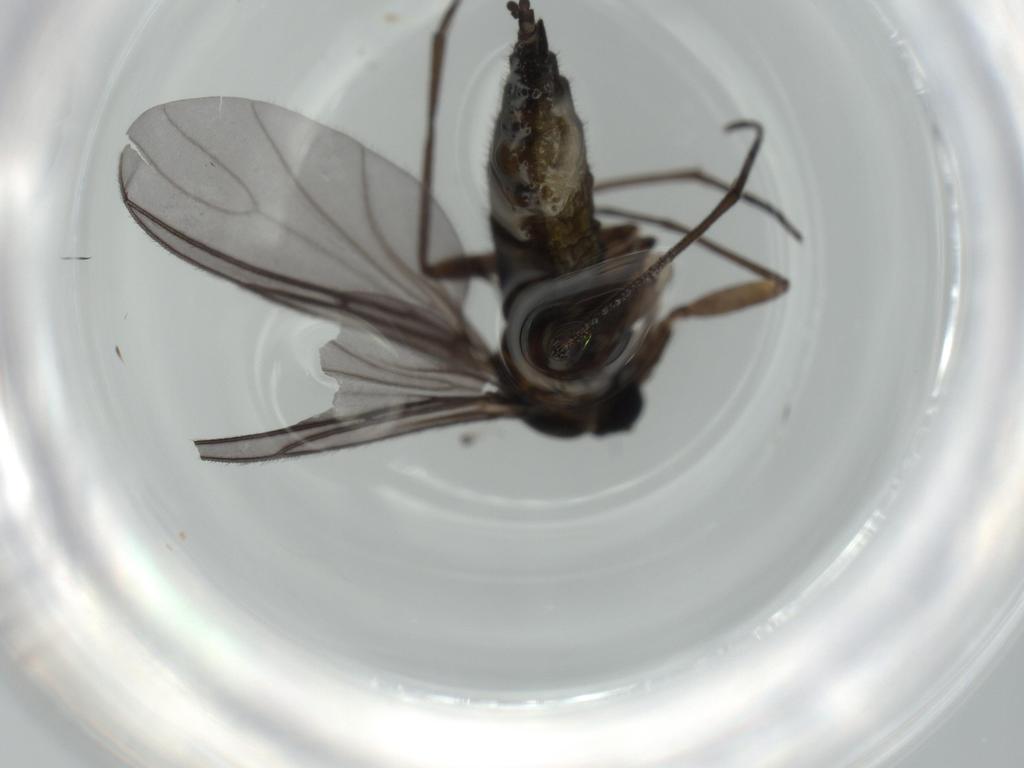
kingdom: Animalia
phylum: Arthropoda
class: Insecta
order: Diptera
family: Sciaridae
